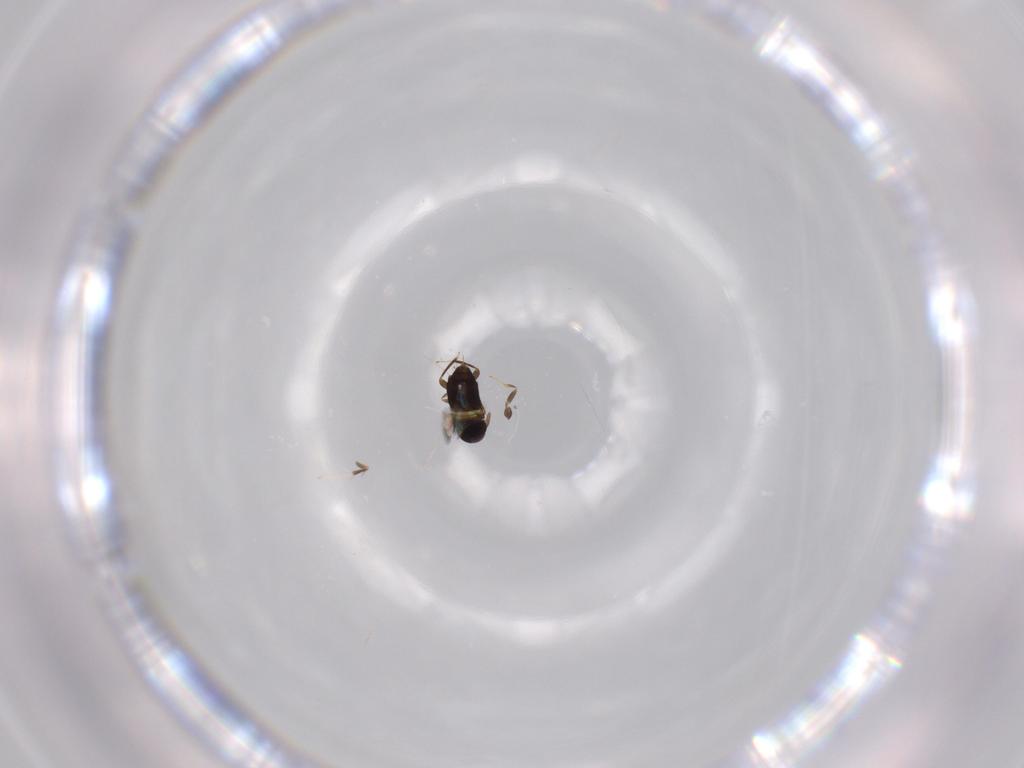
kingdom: Animalia
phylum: Arthropoda
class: Insecta
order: Hymenoptera
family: Signiphoridae
